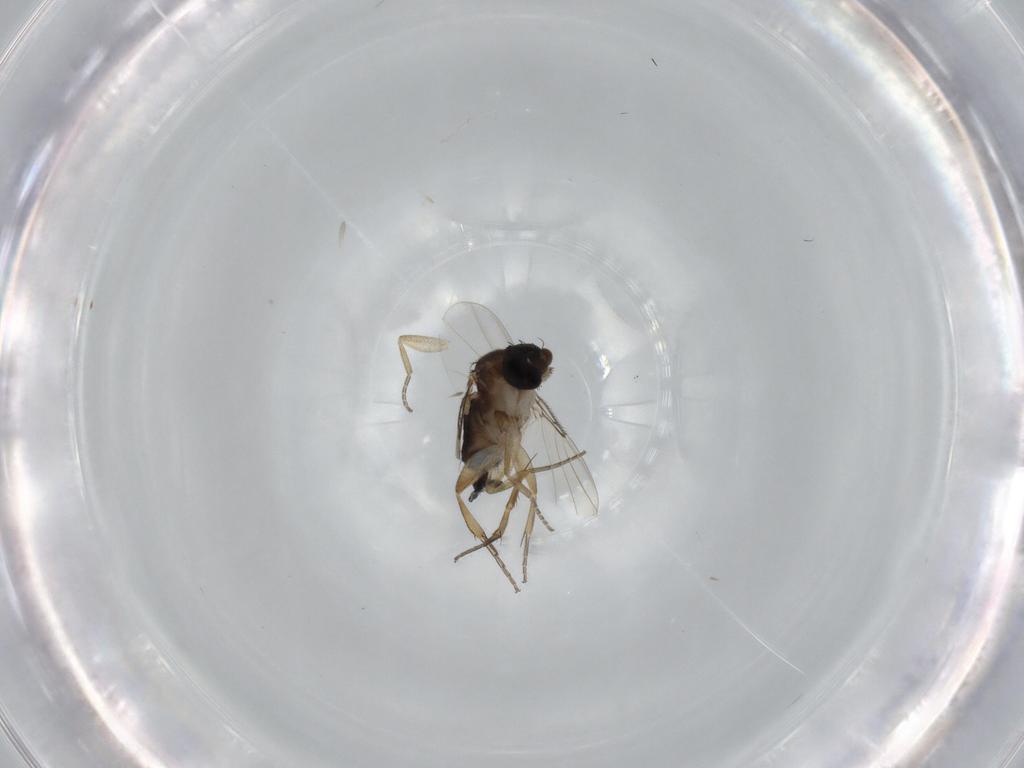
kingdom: Animalia
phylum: Arthropoda
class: Insecta
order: Diptera
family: Phoridae
